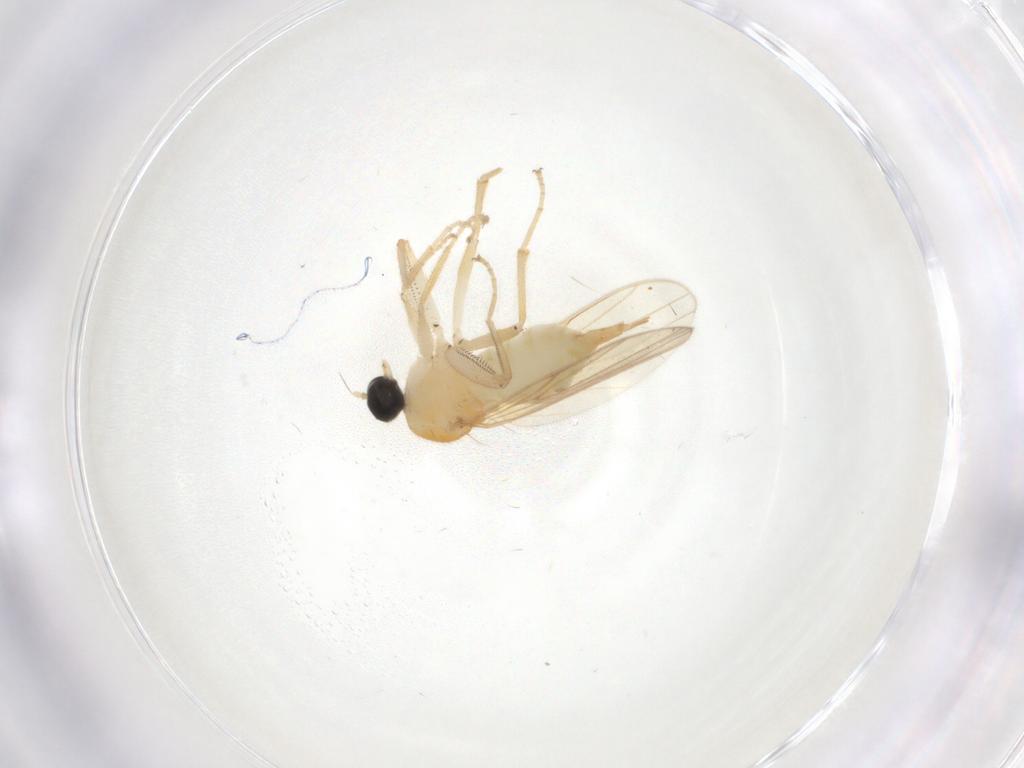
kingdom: Animalia
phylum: Arthropoda
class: Insecta
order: Diptera
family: Hybotidae
